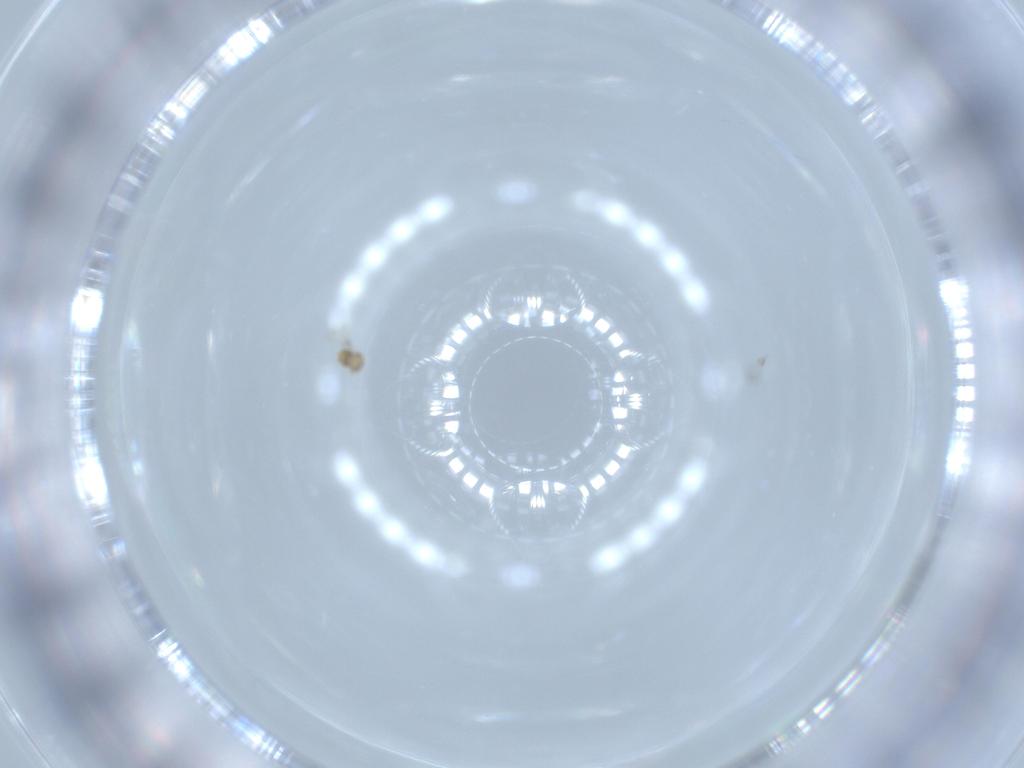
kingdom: Animalia
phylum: Arthropoda
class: Insecta
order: Hymenoptera
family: Aphelinidae
